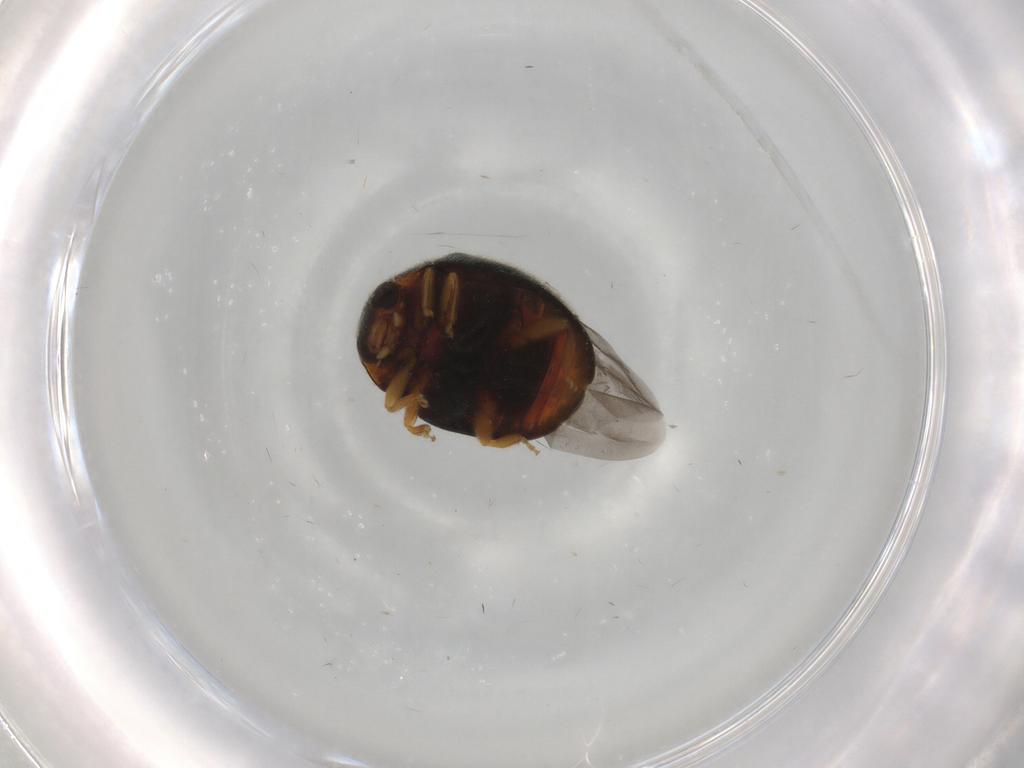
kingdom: Animalia
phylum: Arthropoda
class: Insecta
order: Coleoptera
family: Coccinellidae
